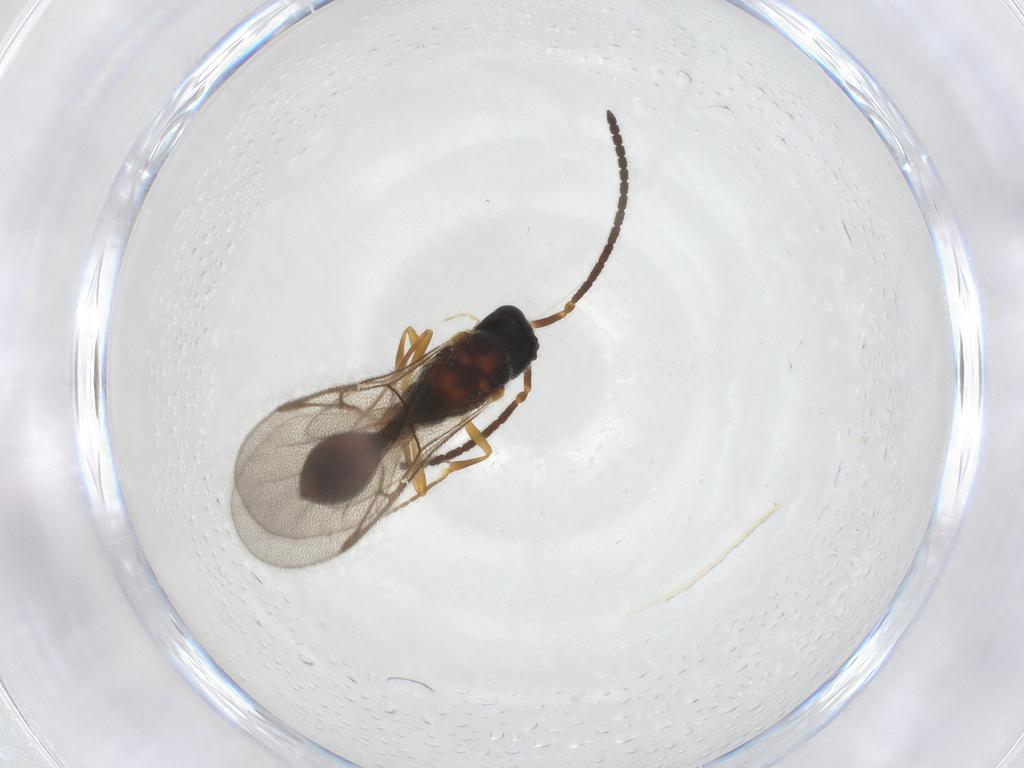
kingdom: Animalia
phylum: Arthropoda
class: Insecta
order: Hymenoptera
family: Diapriidae
